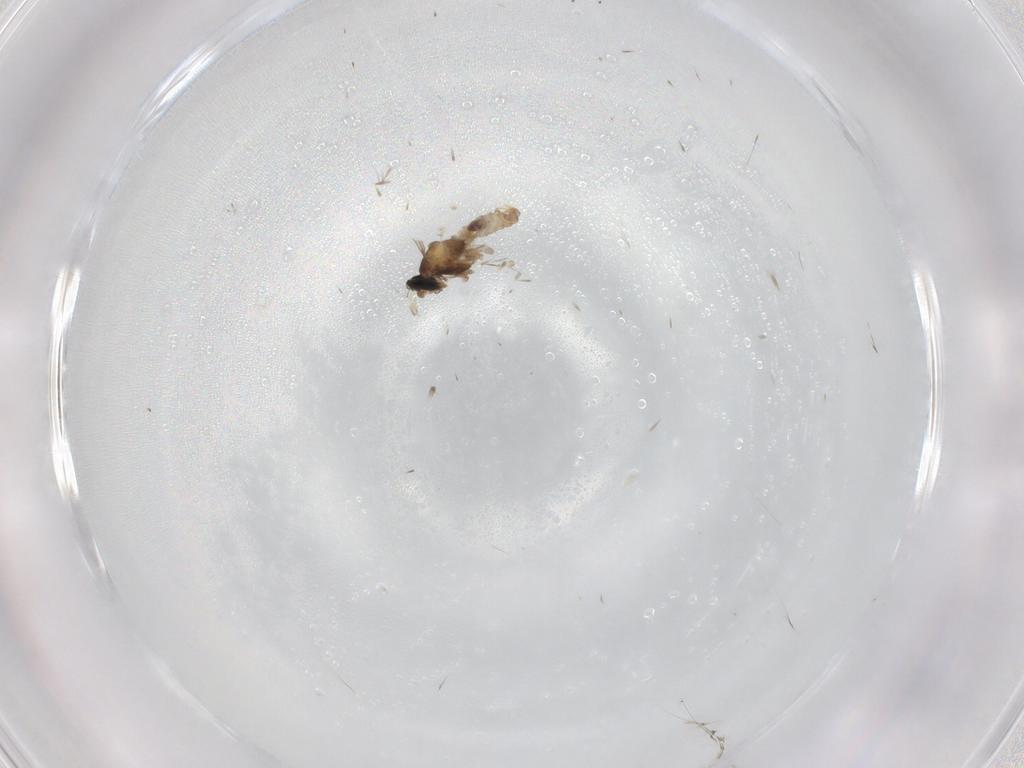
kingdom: Animalia
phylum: Arthropoda
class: Insecta
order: Diptera
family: Cecidomyiidae
